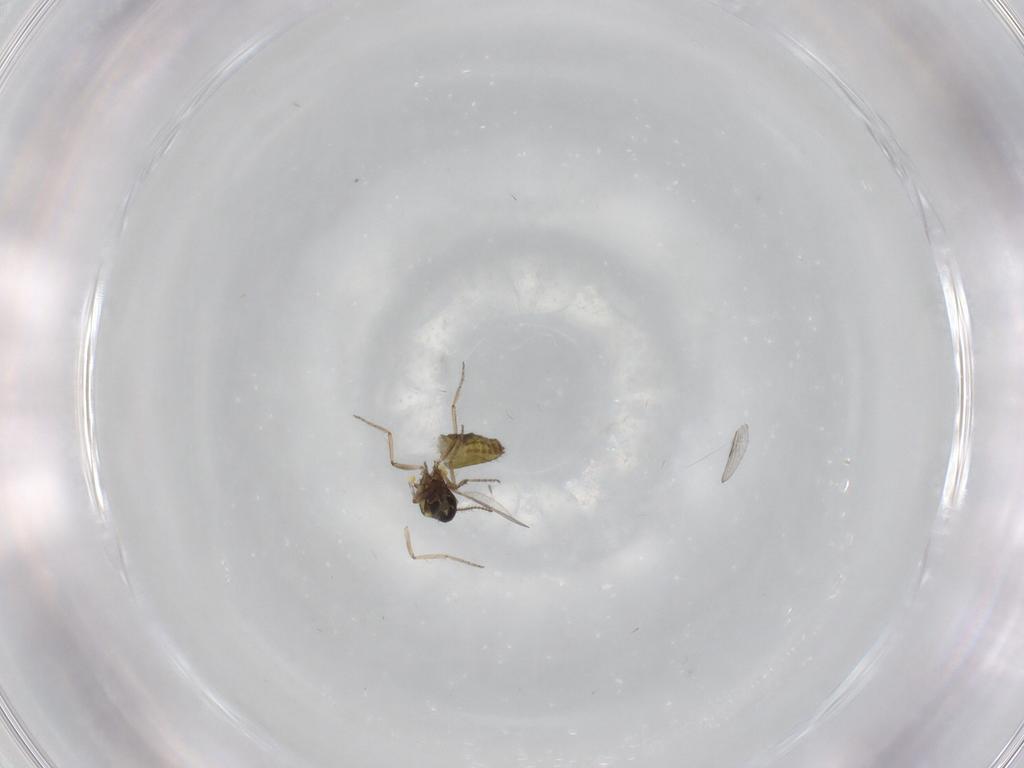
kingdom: Animalia
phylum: Arthropoda
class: Insecta
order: Diptera
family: Ceratopogonidae
